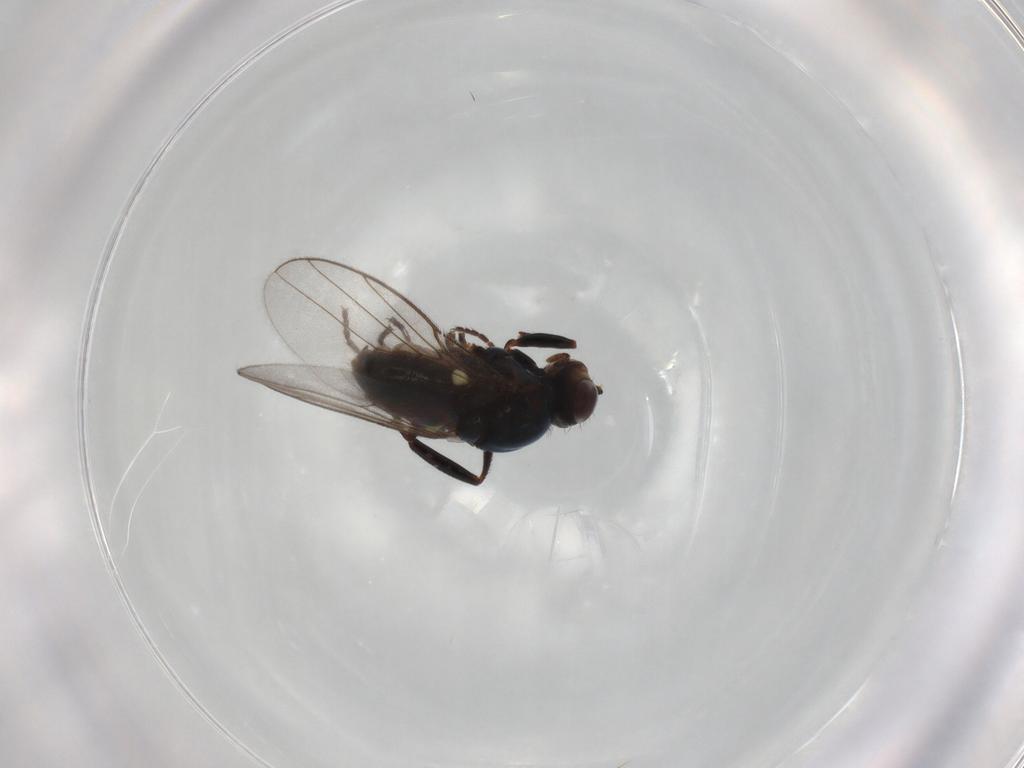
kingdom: Animalia
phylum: Arthropoda
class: Insecta
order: Diptera
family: Chloropidae
